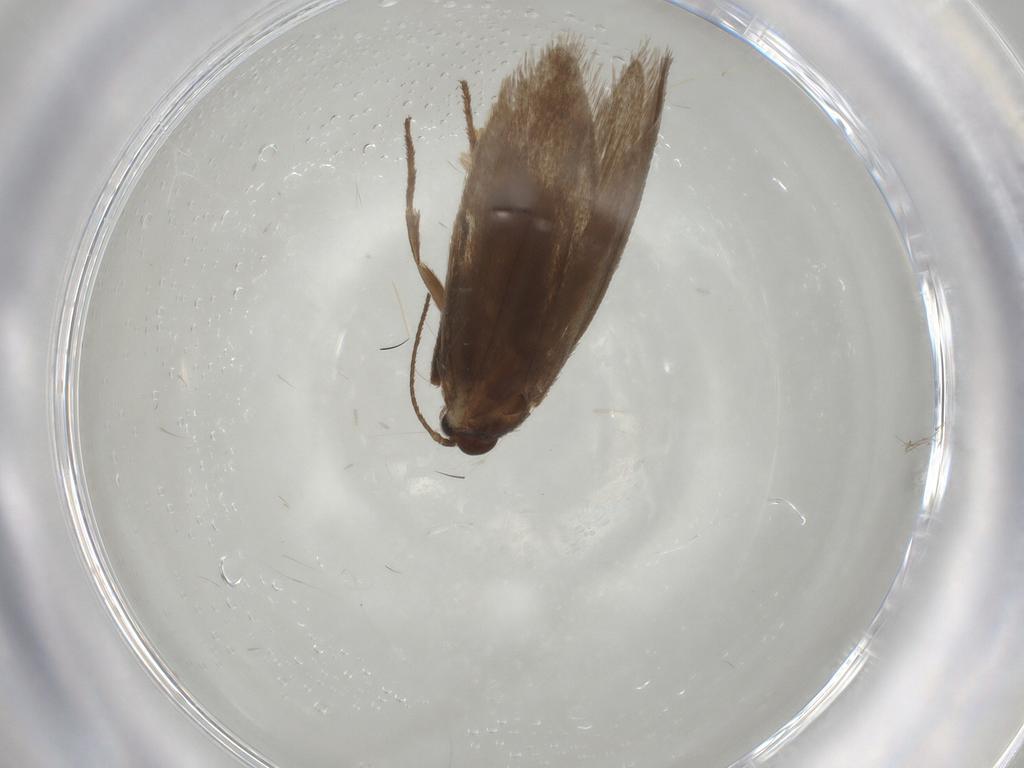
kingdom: Animalia
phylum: Arthropoda
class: Insecta
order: Lepidoptera
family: Limacodidae
